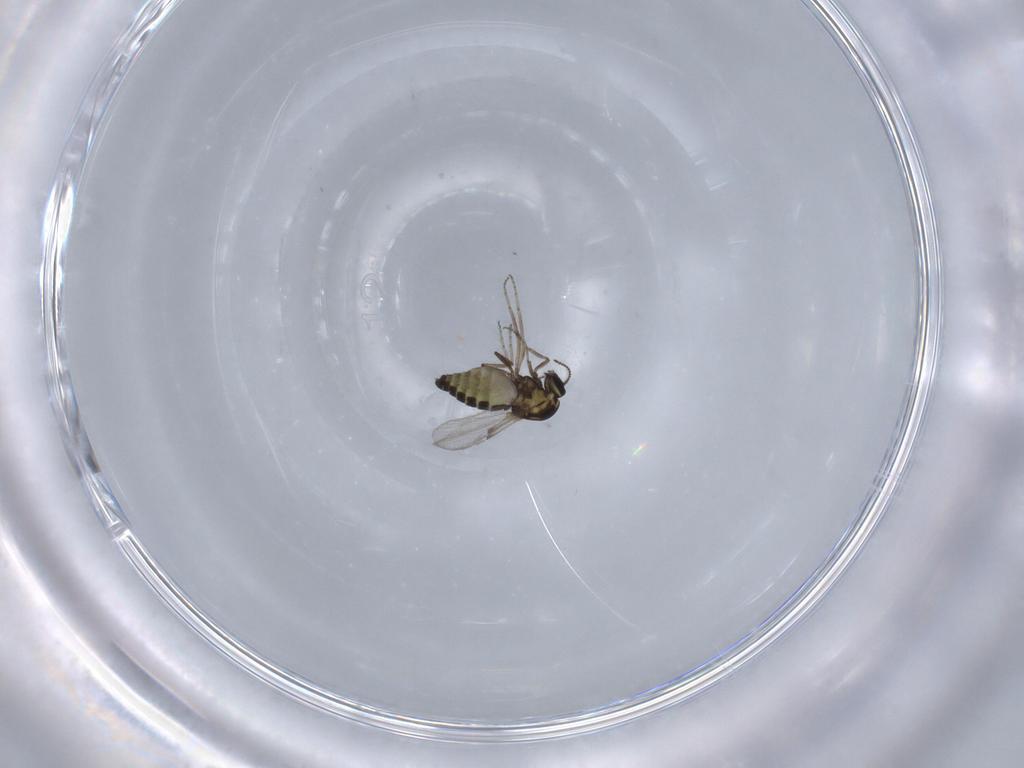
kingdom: Animalia
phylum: Arthropoda
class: Insecta
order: Diptera
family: Ceratopogonidae
